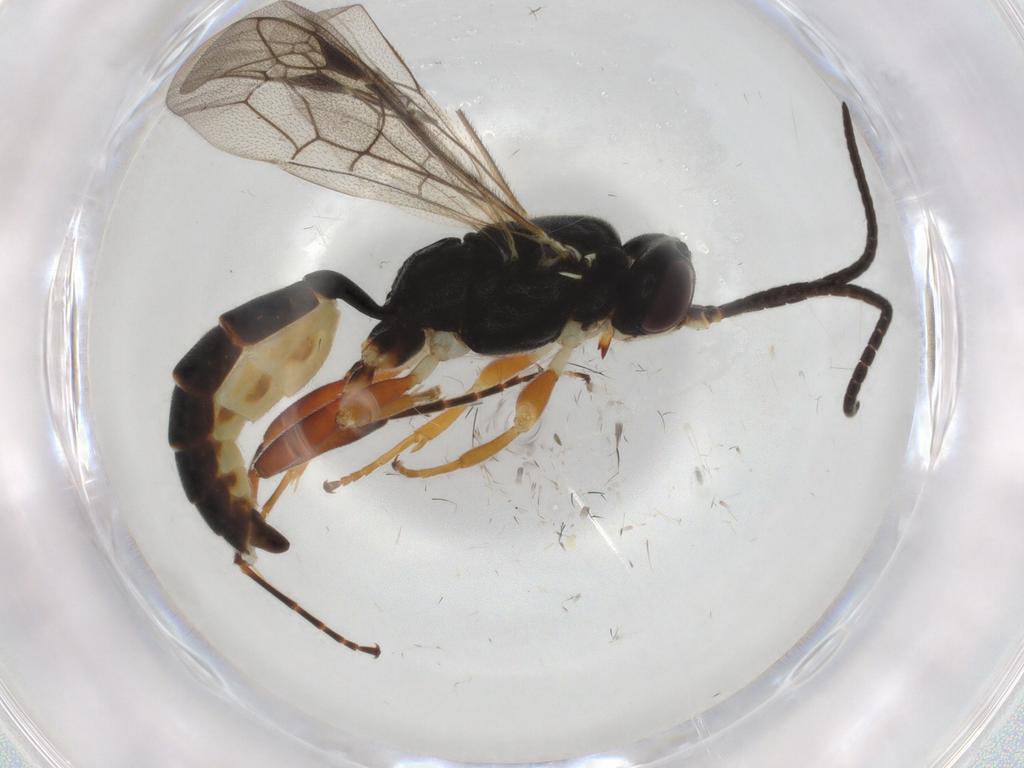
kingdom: Animalia
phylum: Arthropoda
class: Insecta
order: Hymenoptera
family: Ichneumonidae
